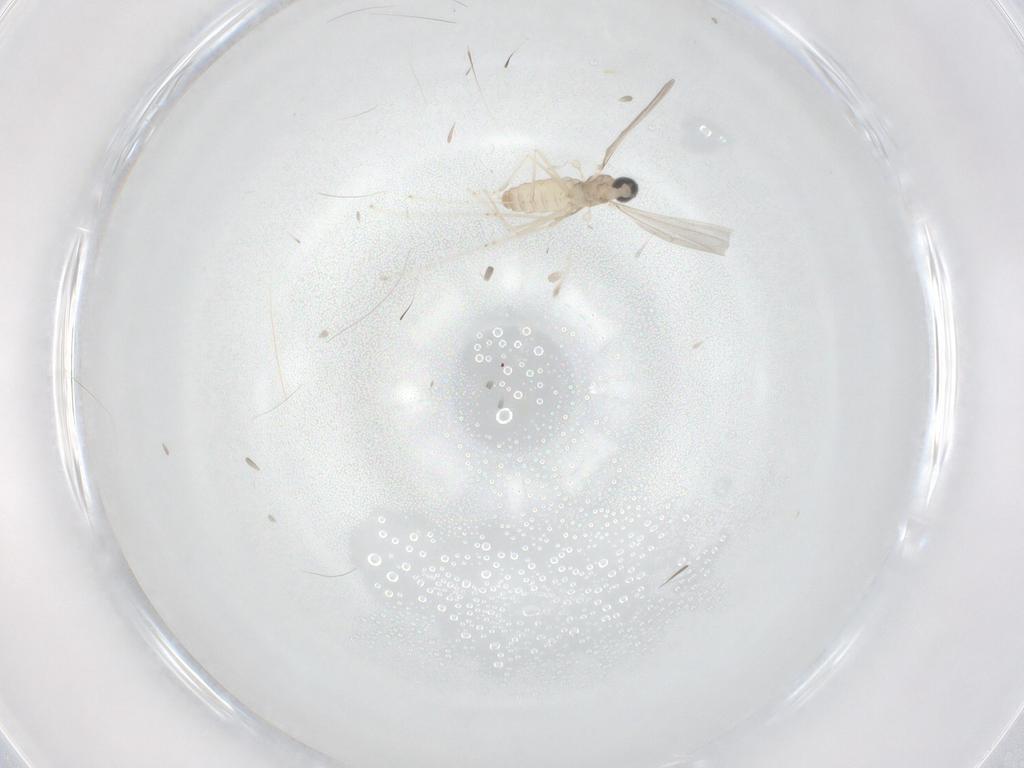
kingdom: Animalia
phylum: Arthropoda
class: Insecta
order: Diptera
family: Cecidomyiidae
